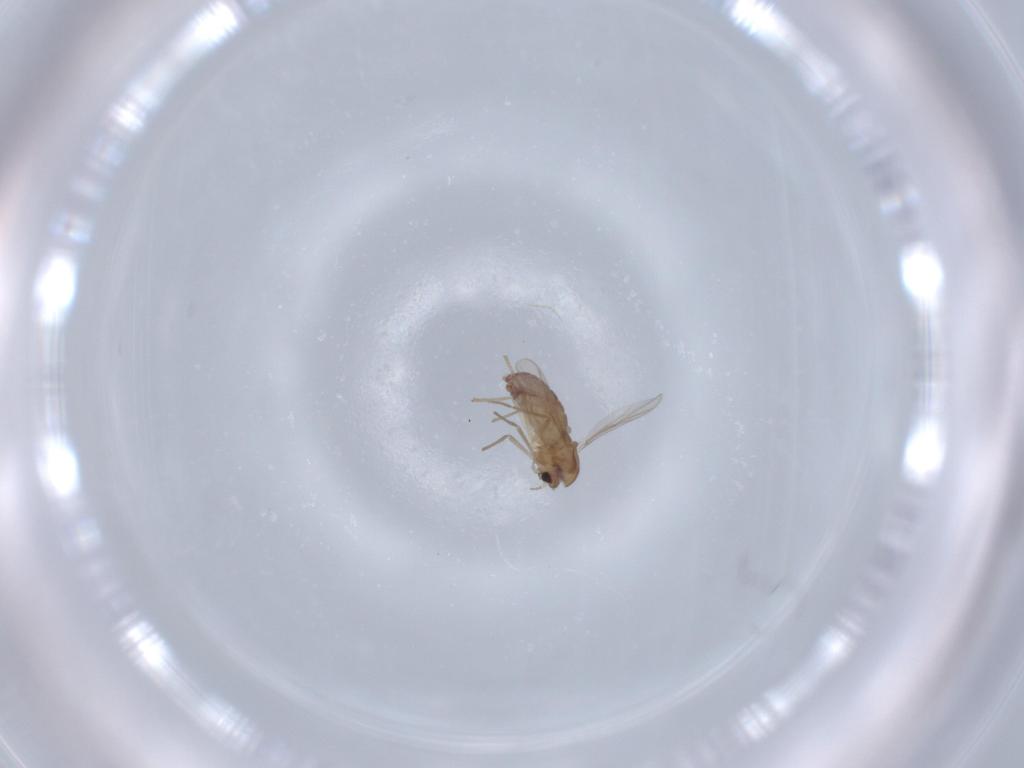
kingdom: Animalia
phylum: Arthropoda
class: Insecta
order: Diptera
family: Chironomidae
